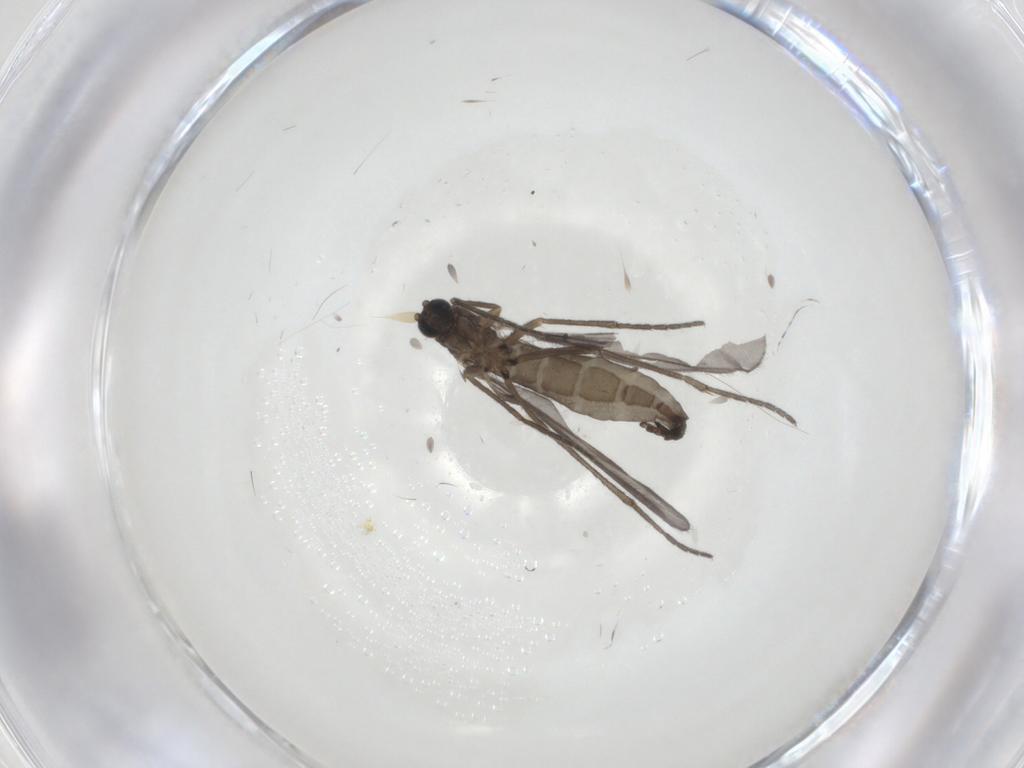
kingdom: Animalia
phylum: Arthropoda
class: Insecta
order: Diptera
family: Sciaridae
